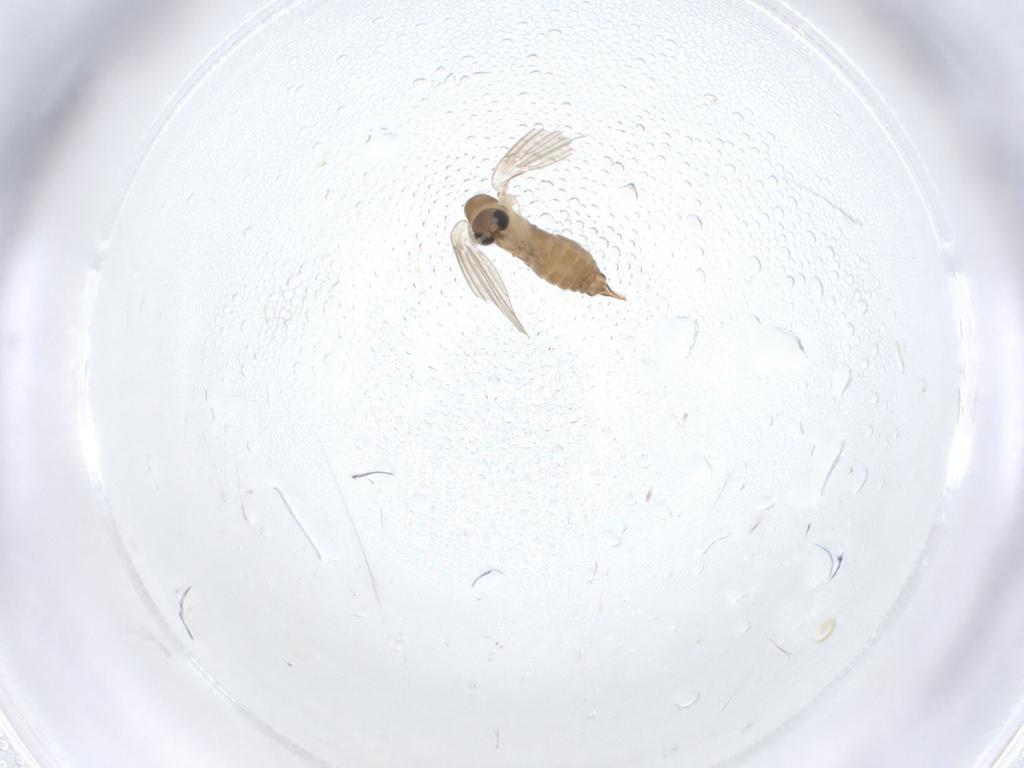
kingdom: Animalia
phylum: Arthropoda
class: Insecta
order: Diptera
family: Psychodidae
